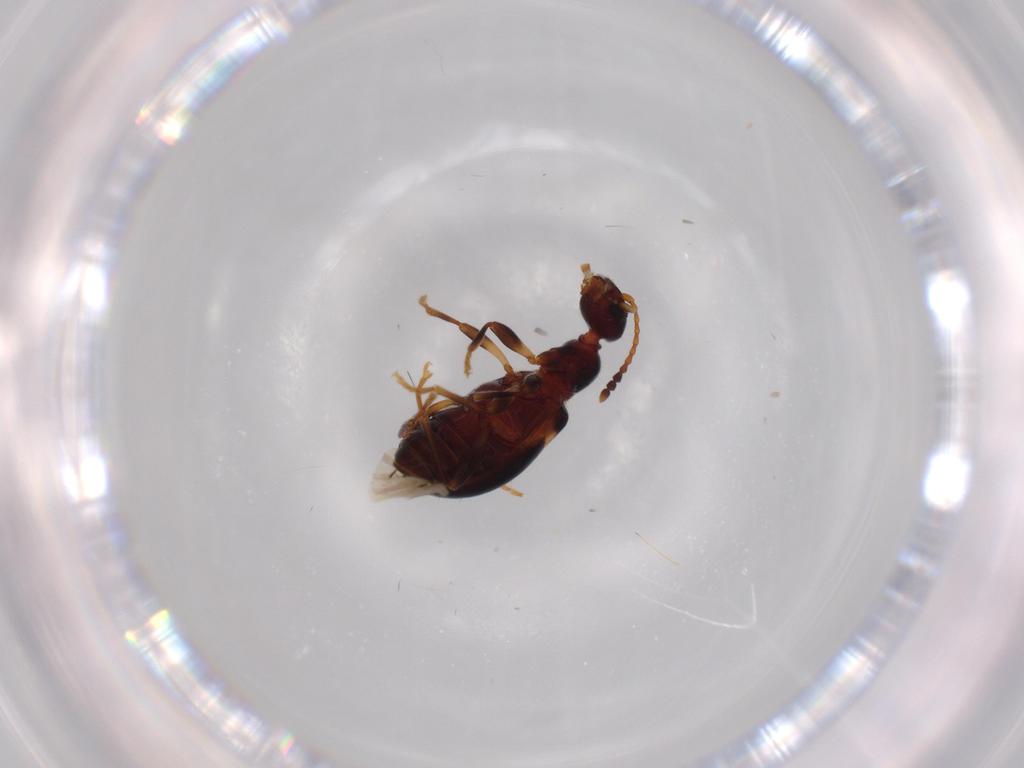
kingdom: Animalia
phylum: Arthropoda
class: Insecta
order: Coleoptera
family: Anthicidae
